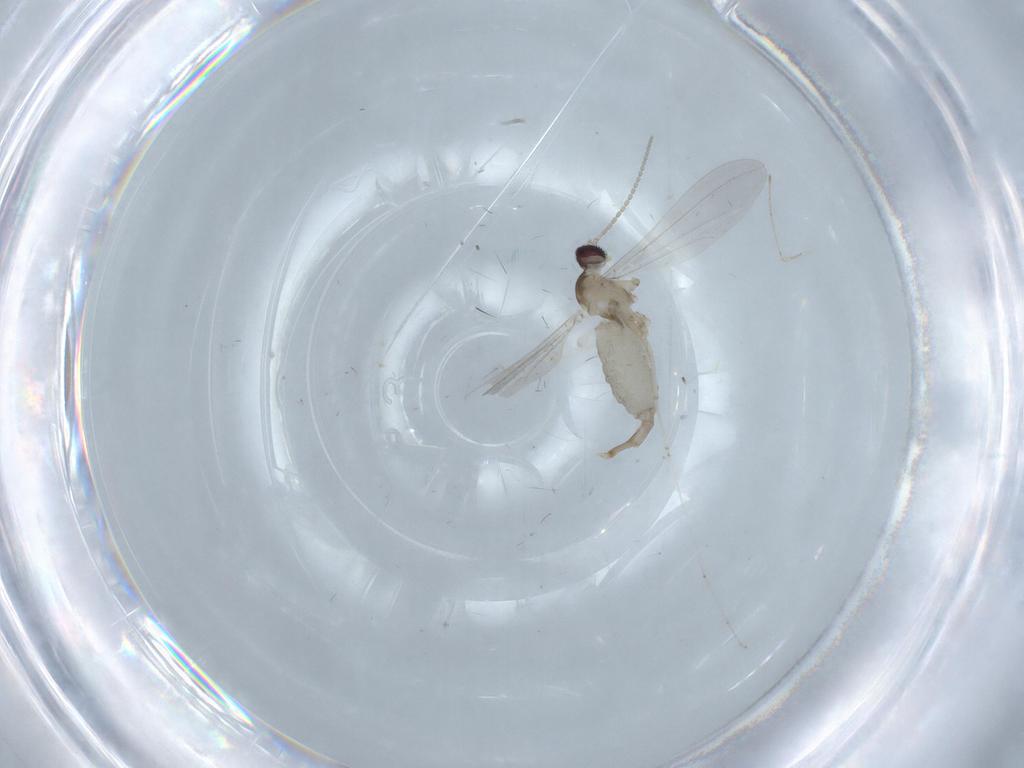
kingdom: Animalia
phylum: Arthropoda
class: Insecta
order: Diptera
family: Cecidomyiidae
